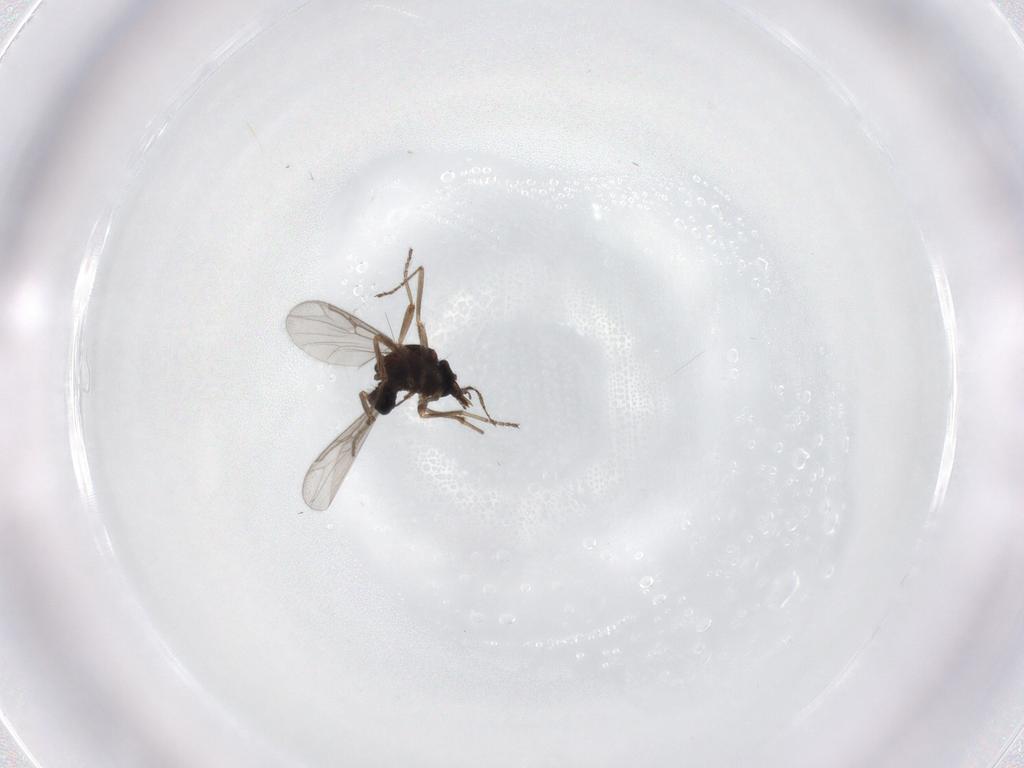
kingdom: Animalia
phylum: Arthropoda
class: Insecta
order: Diptera
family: Ceratopogonidae
